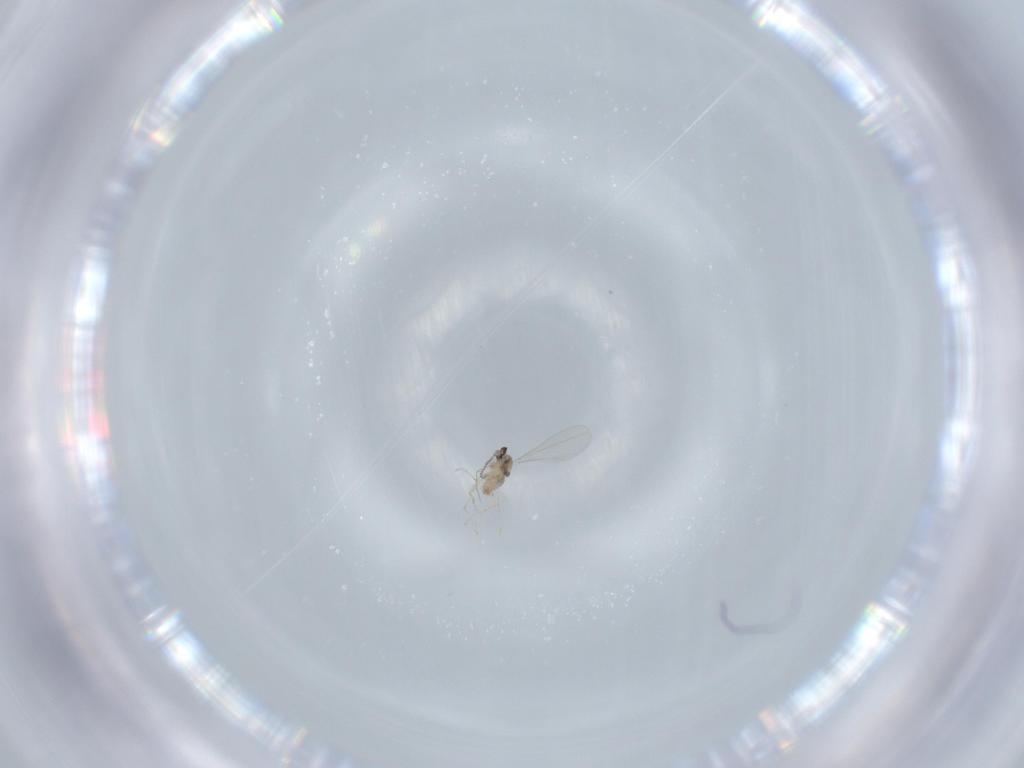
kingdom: Animalia
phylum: Arthropoda
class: Insecta
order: Diptera
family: Cecidomyiidae
